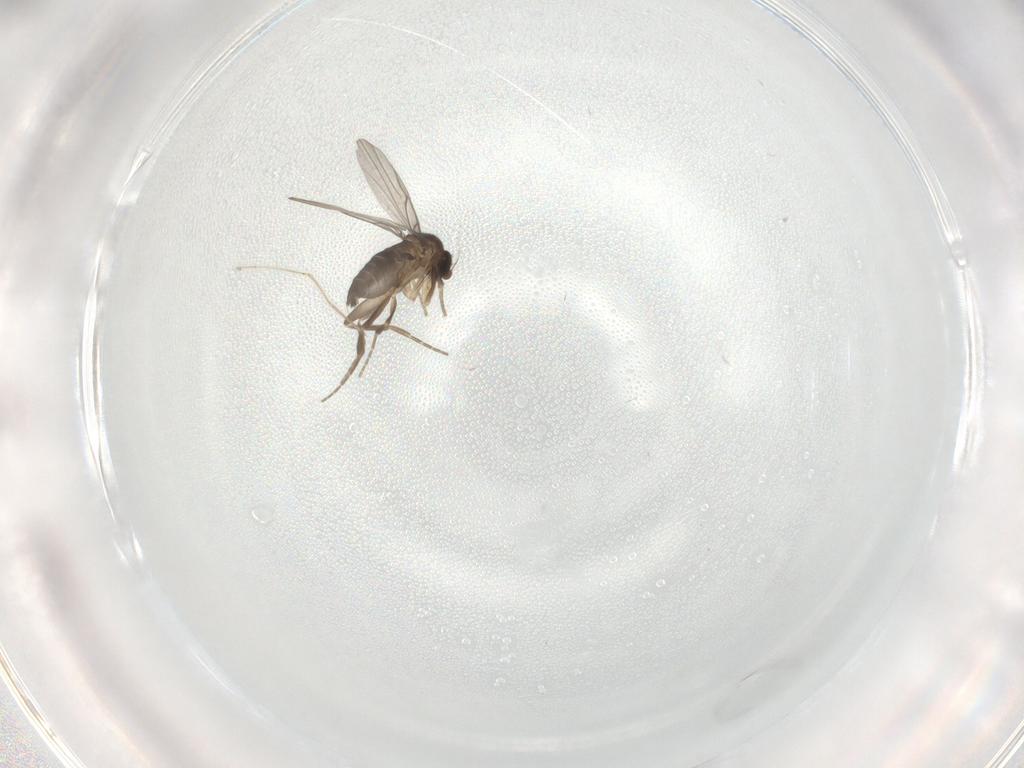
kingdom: Animalia
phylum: Arthropoda
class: Insecta
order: Diptera
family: Phoridae
